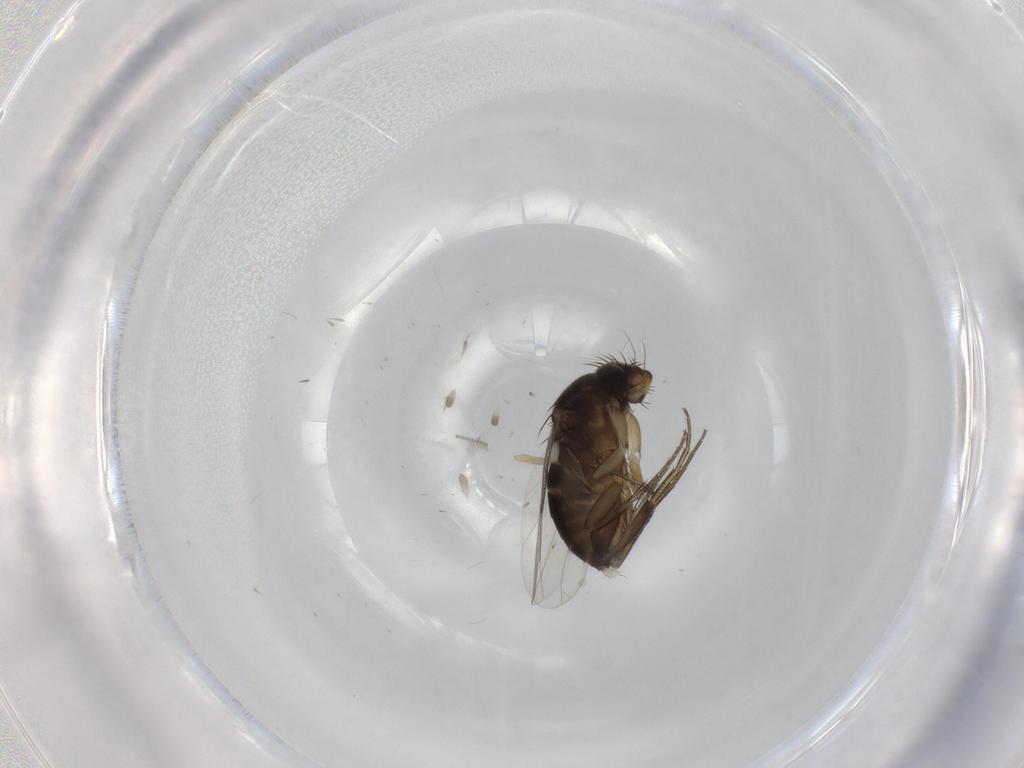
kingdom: Animalia
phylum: Arthropoda
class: Insecta
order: Diptera
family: Phoridae
